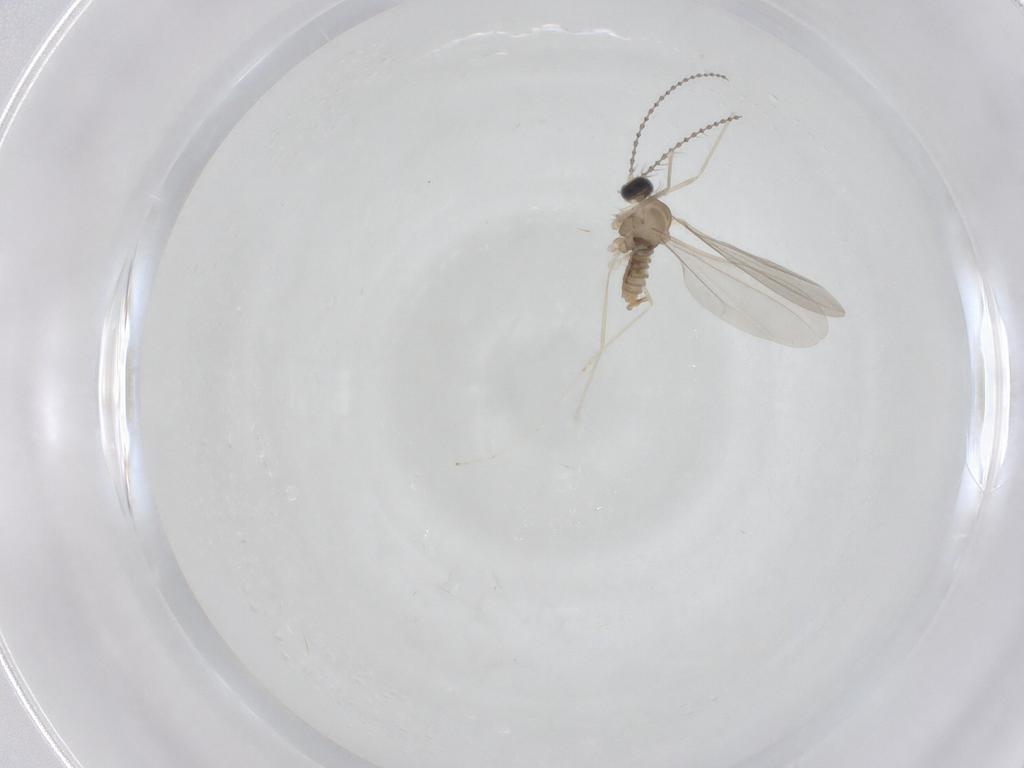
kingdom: Animalia
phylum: Arthropoda
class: Insecta
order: Diptera
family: Cecidomyiidae
